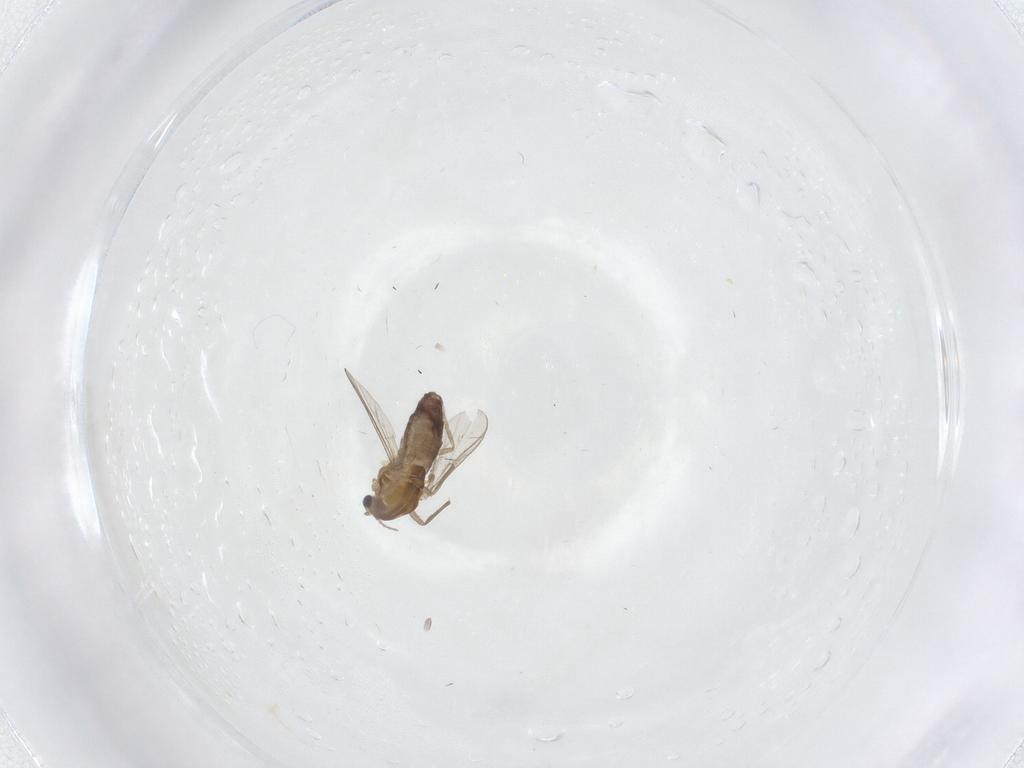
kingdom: Animalia
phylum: Arthropoda
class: Insecta
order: Diptera
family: Chironomidae
